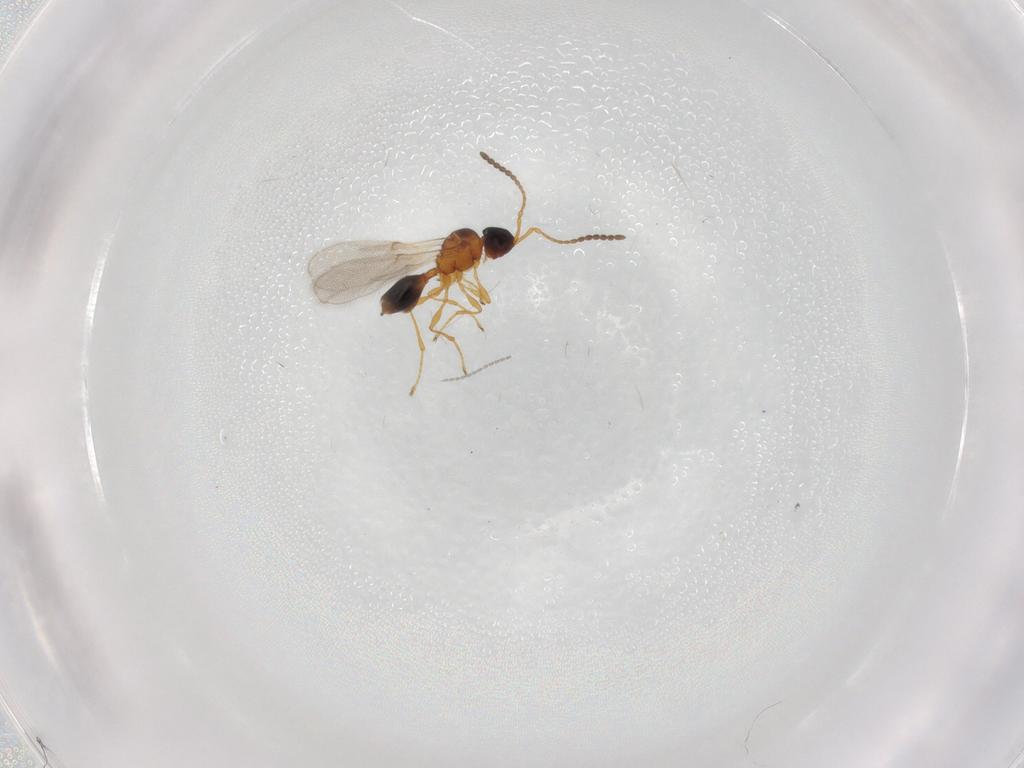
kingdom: Animalia
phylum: Arthropoda
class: Insecta
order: Hymenoptera
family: Diapriidae
